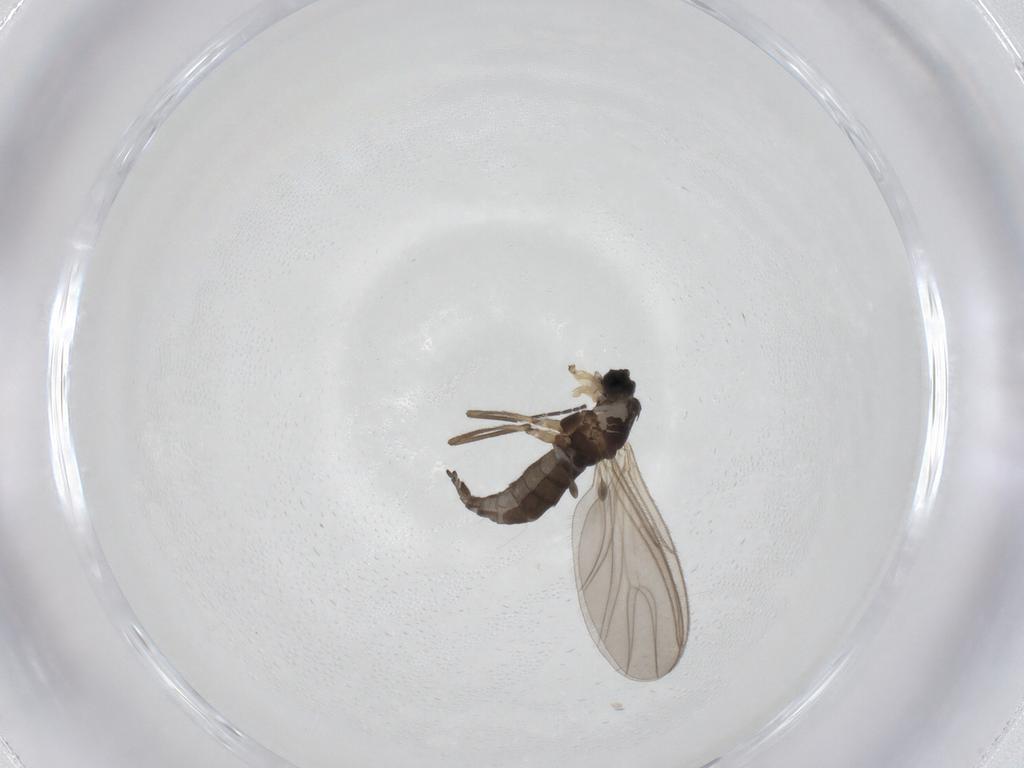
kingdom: Animalia
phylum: Arthropoda
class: Insecta
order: Diptera
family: Sciaridae
